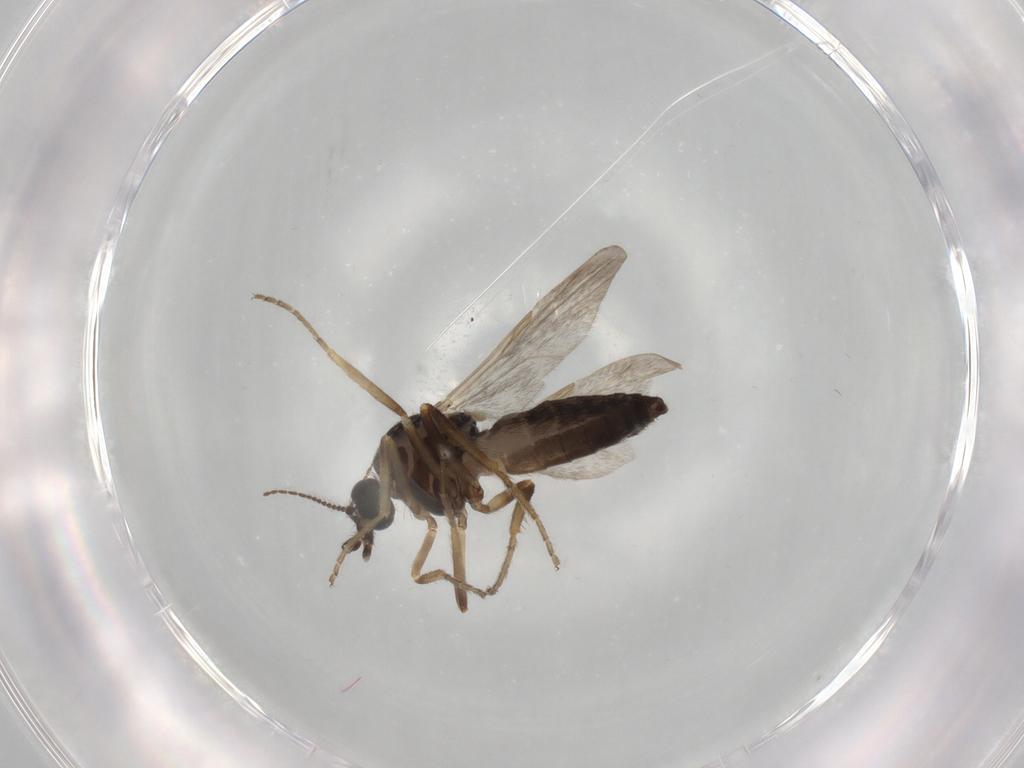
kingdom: Animalia
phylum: Arthropoda
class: Insecta
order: Diptera
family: Ceratopogonidae
